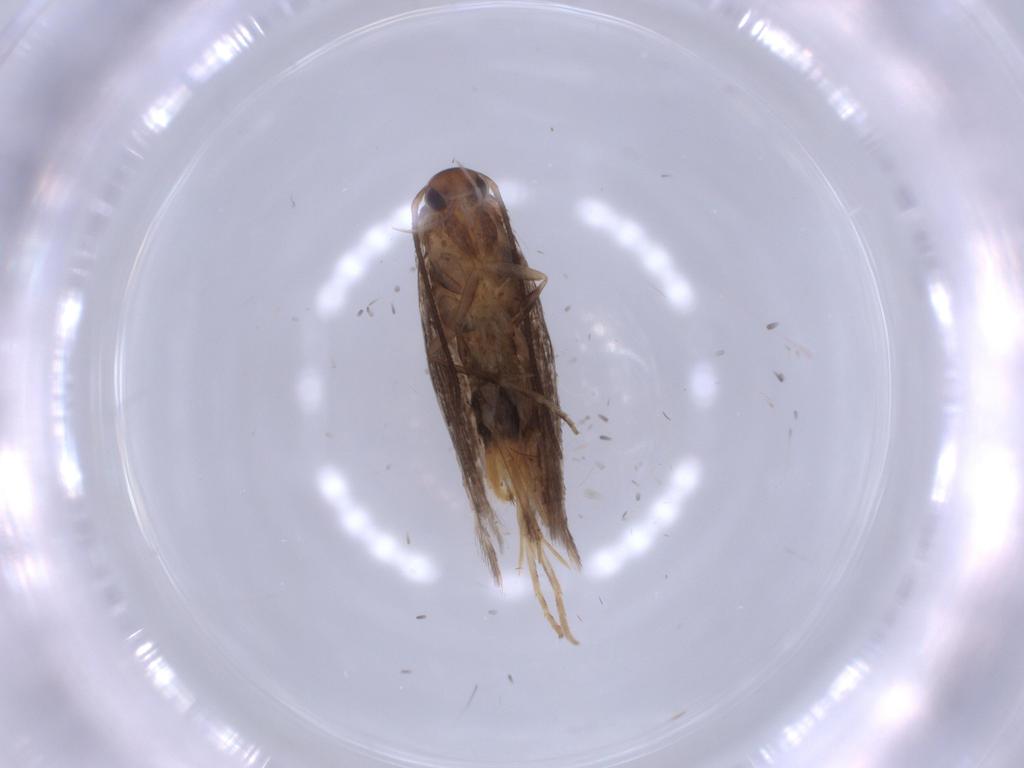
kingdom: Animalia
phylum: Arthropoda
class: Insecta
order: Lepidoptera
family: Elachistidae
